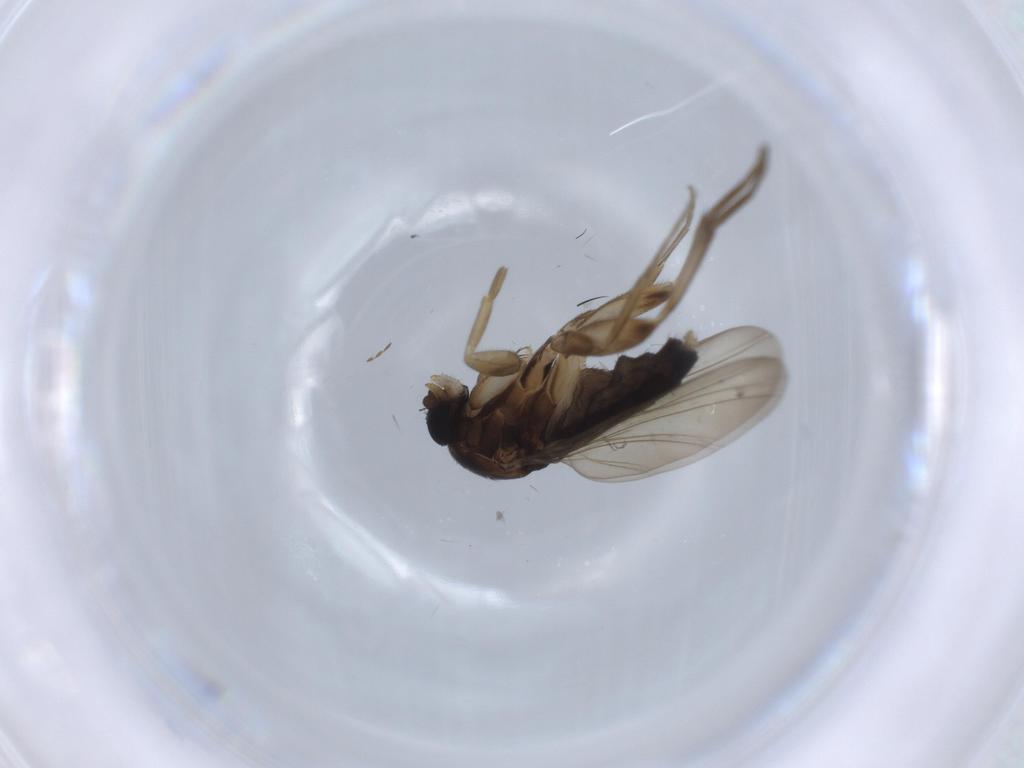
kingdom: Animalia
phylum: Arthropoda
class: Insecta
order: Diptera
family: Phoridae
